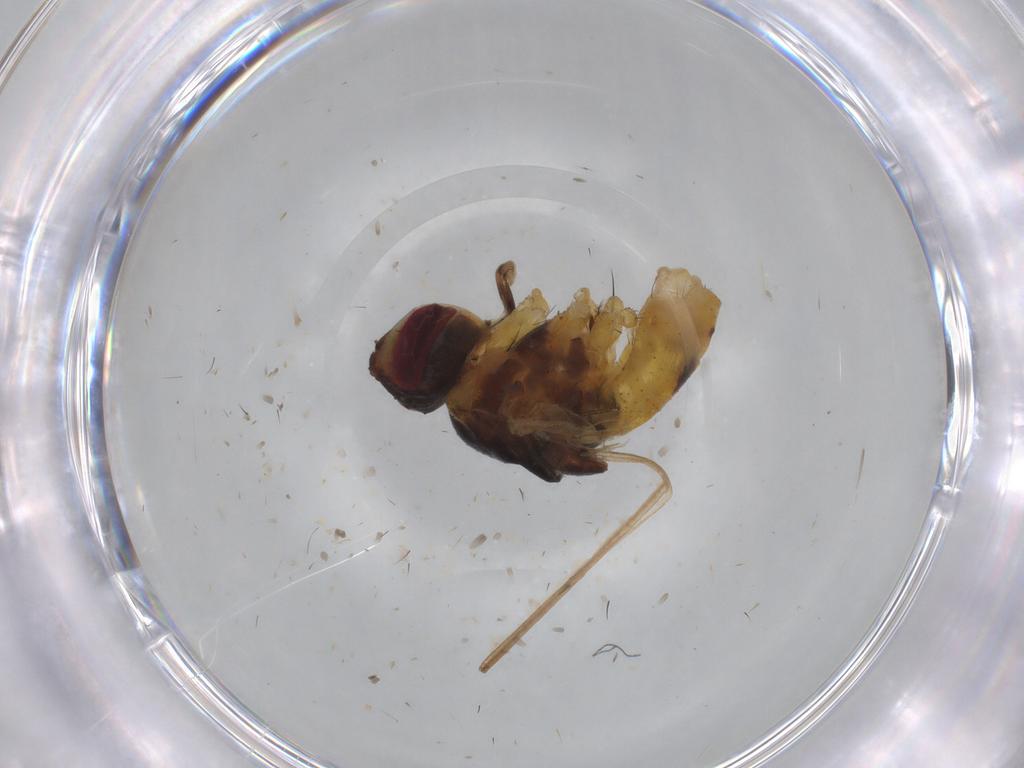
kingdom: Animalia
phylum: Arthropoda
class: Insecta
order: Diptera
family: Muscidae
